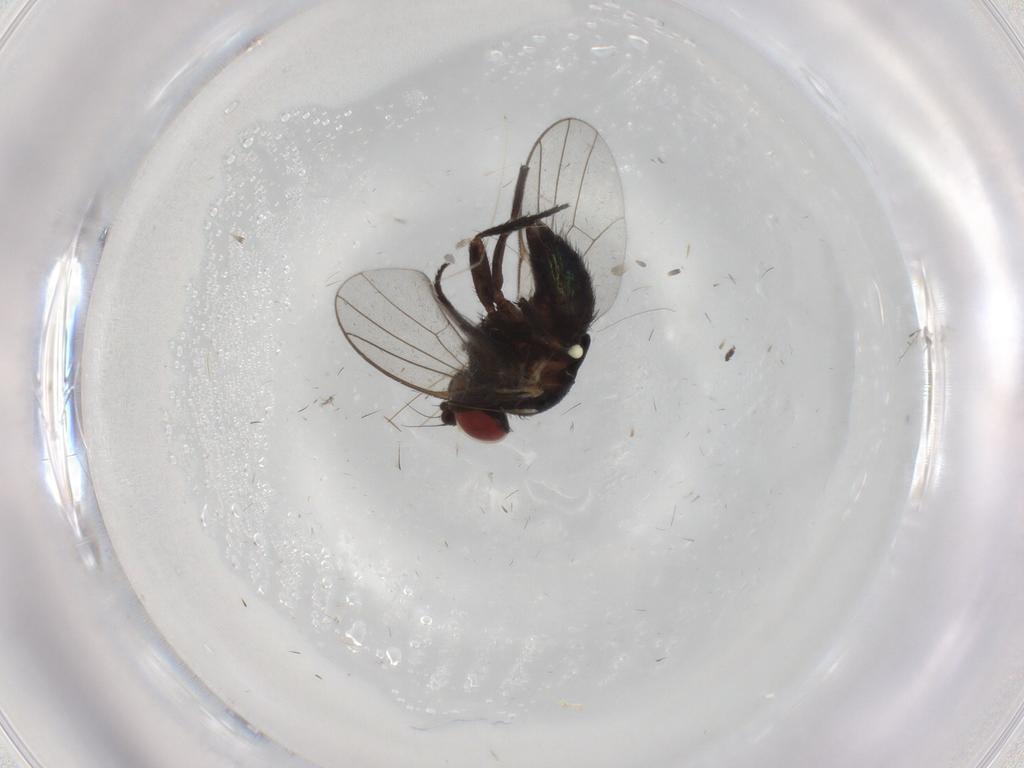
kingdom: Animalia
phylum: Arthropoda
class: Insecta
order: Diptera
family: Agromyzidae
